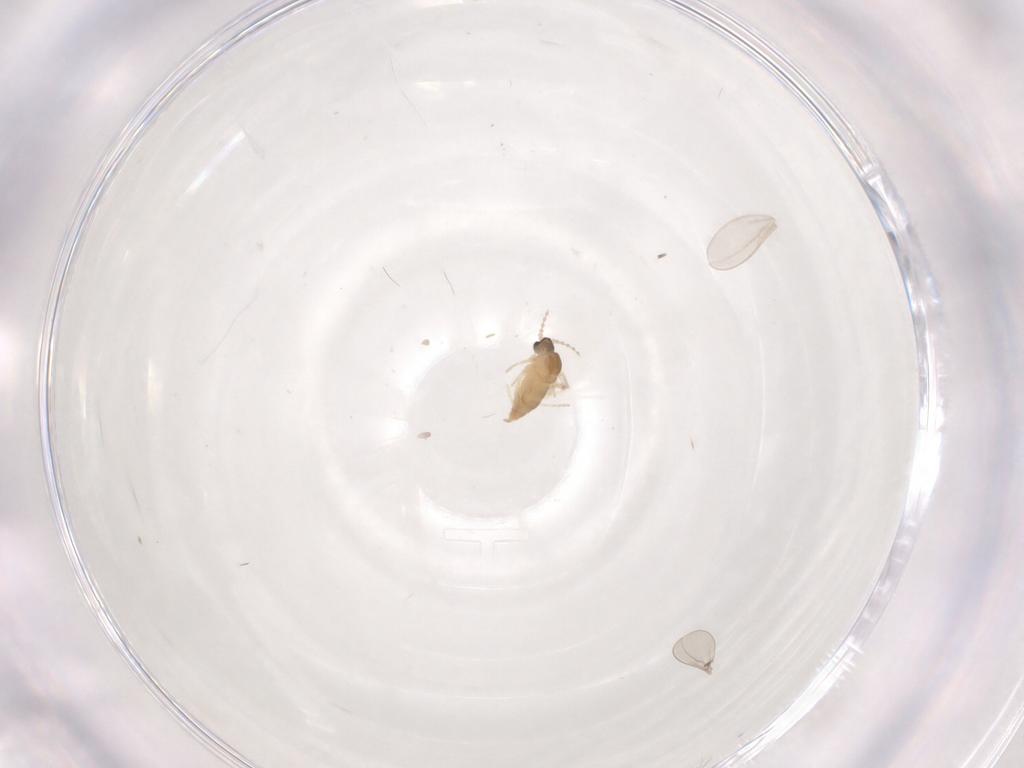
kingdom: Animalia
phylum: Arthropoda
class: Insecta
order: Diptera
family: Cecidomyiidae
